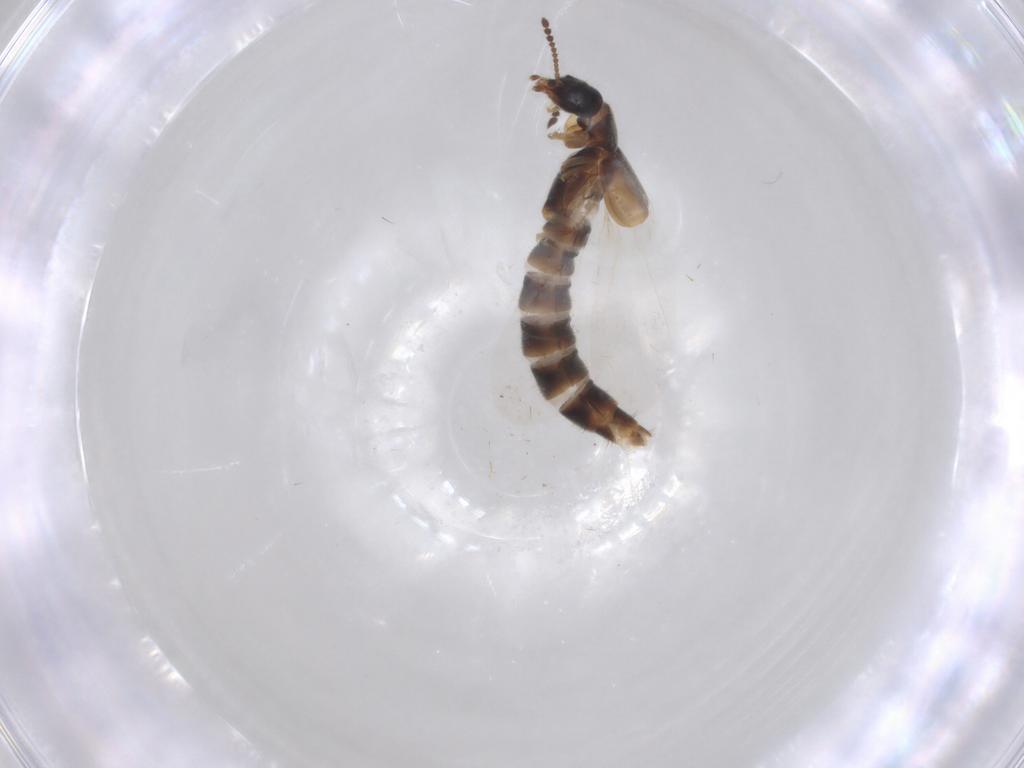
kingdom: Animalia
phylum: Arthropoda
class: Insecta
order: Coleoptera
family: Staphylinidae
